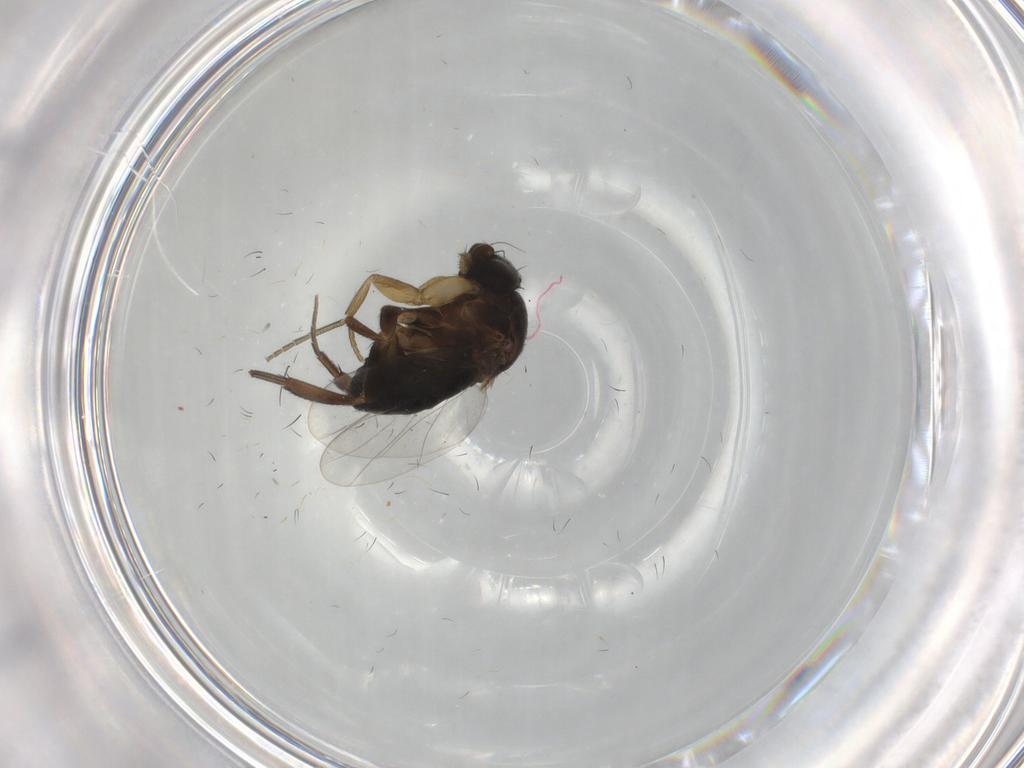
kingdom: Animalia
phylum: Arthropoda
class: Insecta
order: Diptera
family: Phoridae
